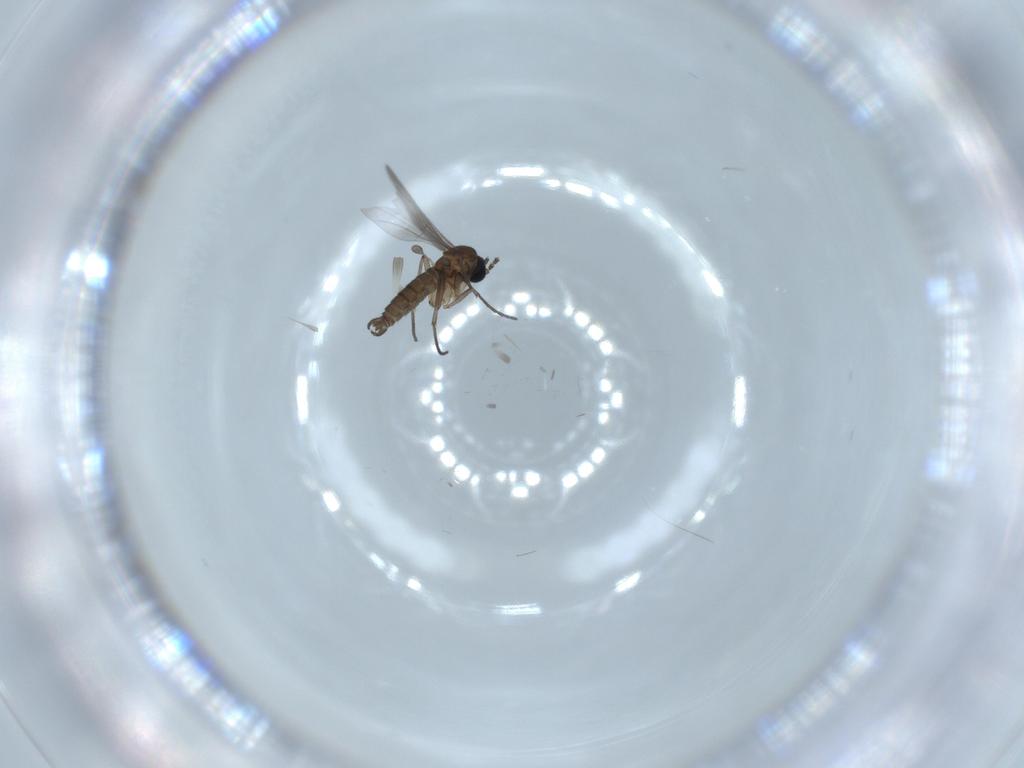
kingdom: Animalia
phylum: Arthropoda
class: Insecta
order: Diptera
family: Sciaridae
